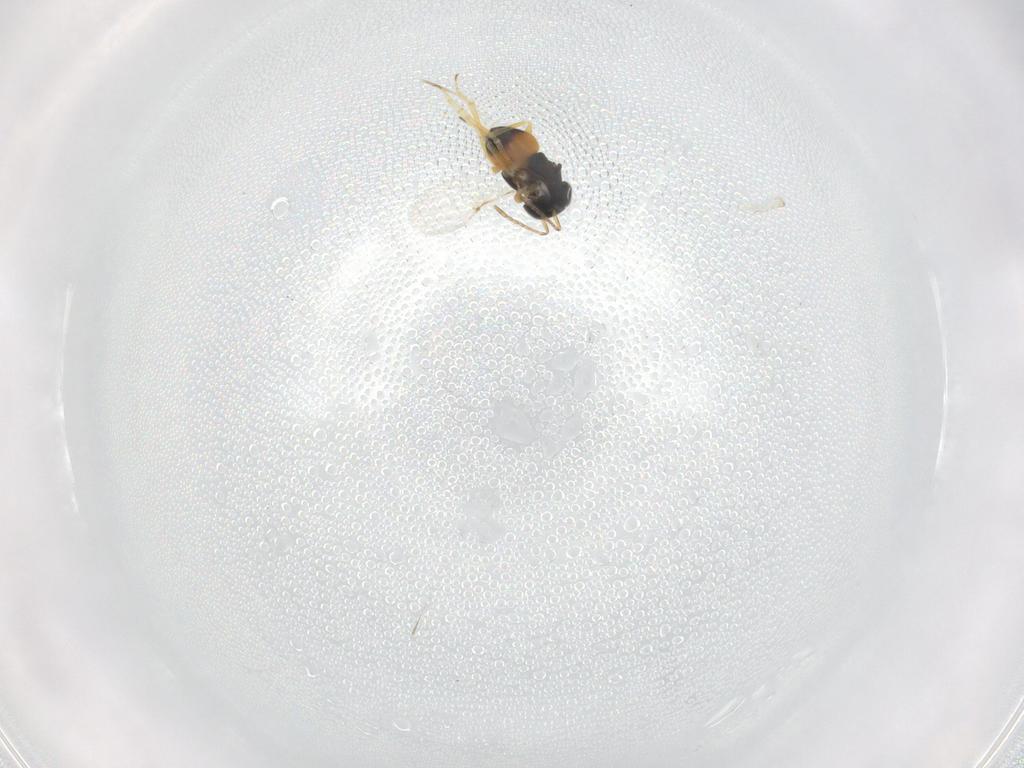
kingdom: Animalia
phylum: Arthropoda
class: Insecta
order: Hymenoptera
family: Encyrtidae
